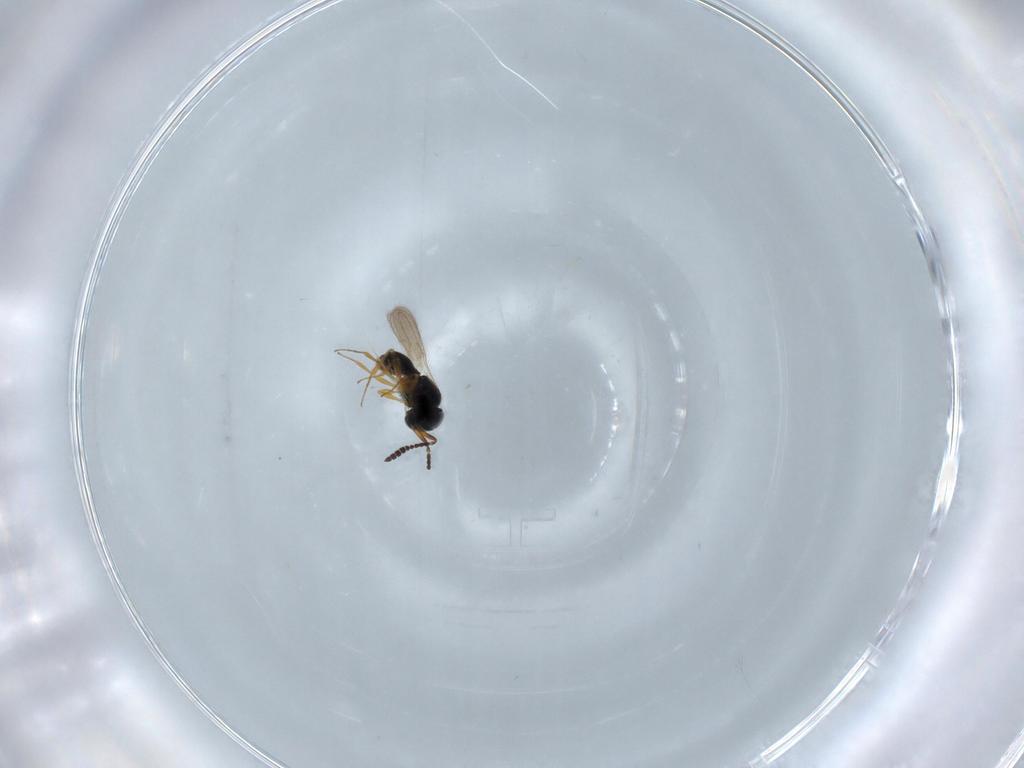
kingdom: Animalia
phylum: Arthropoda
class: Insecta
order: Hymenoptera
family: Scelionidae
